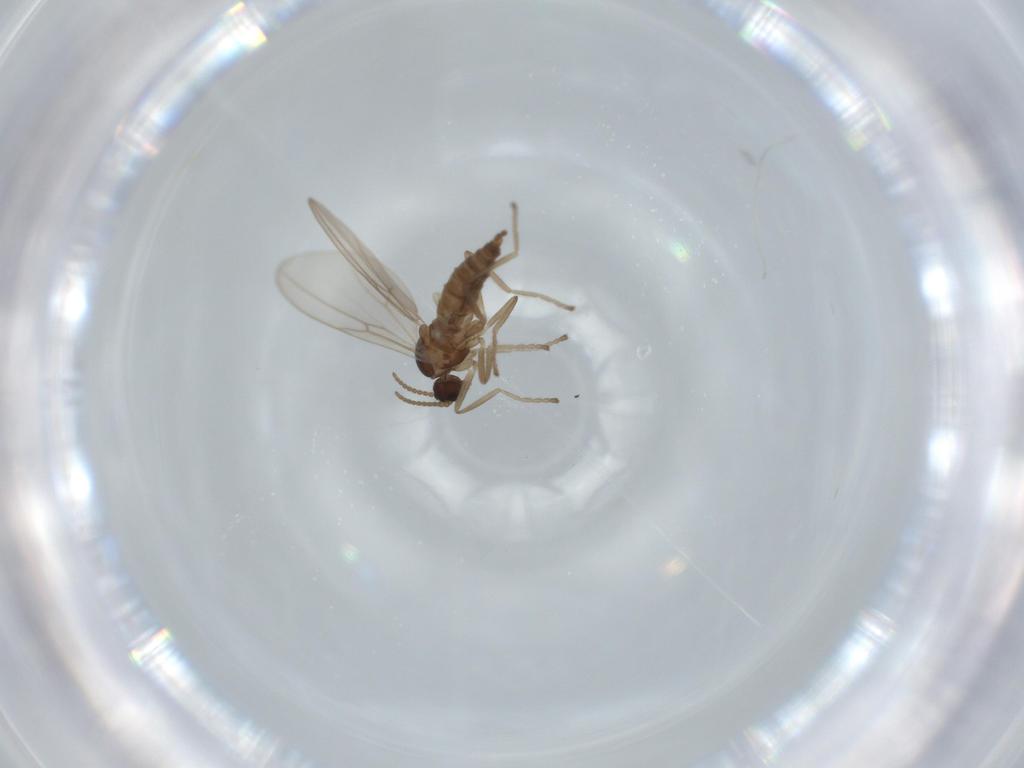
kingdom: Animalia
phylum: Arthropoda
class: Insecta
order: Diptera
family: Cecidomyiidae
